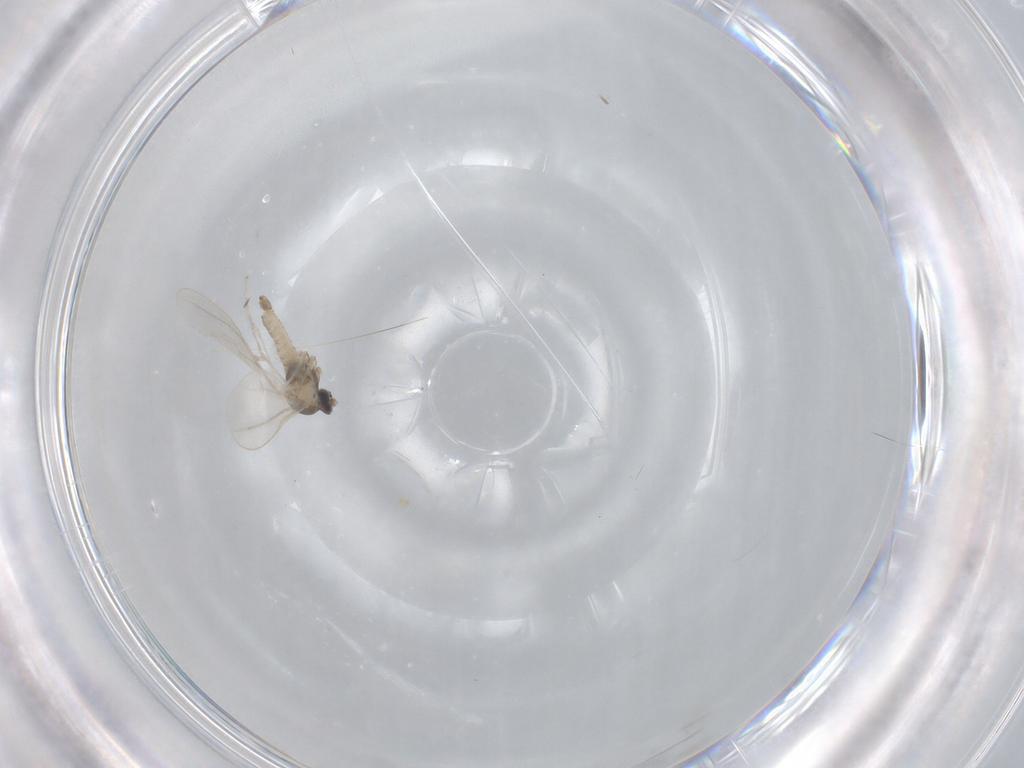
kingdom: Animalia
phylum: Arthropoda
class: Insecta
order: Diptera
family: Cecidomyiidae
